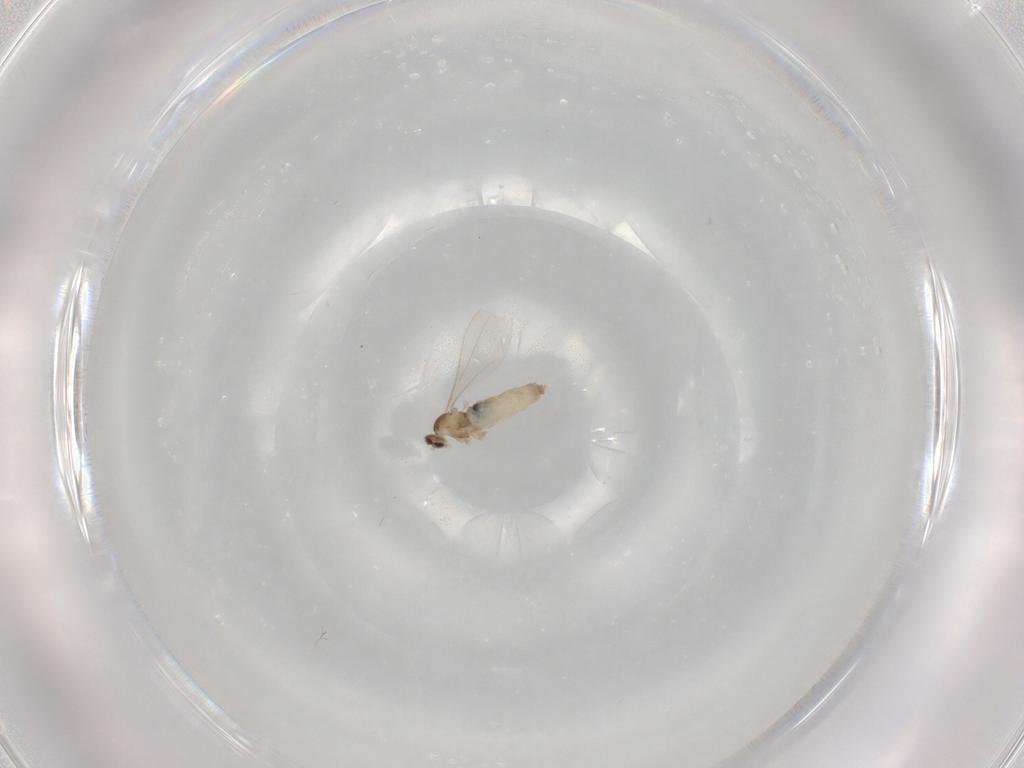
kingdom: Animalia
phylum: Arthropoda
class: Insecta
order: Diptera
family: Cecidomyiidae
